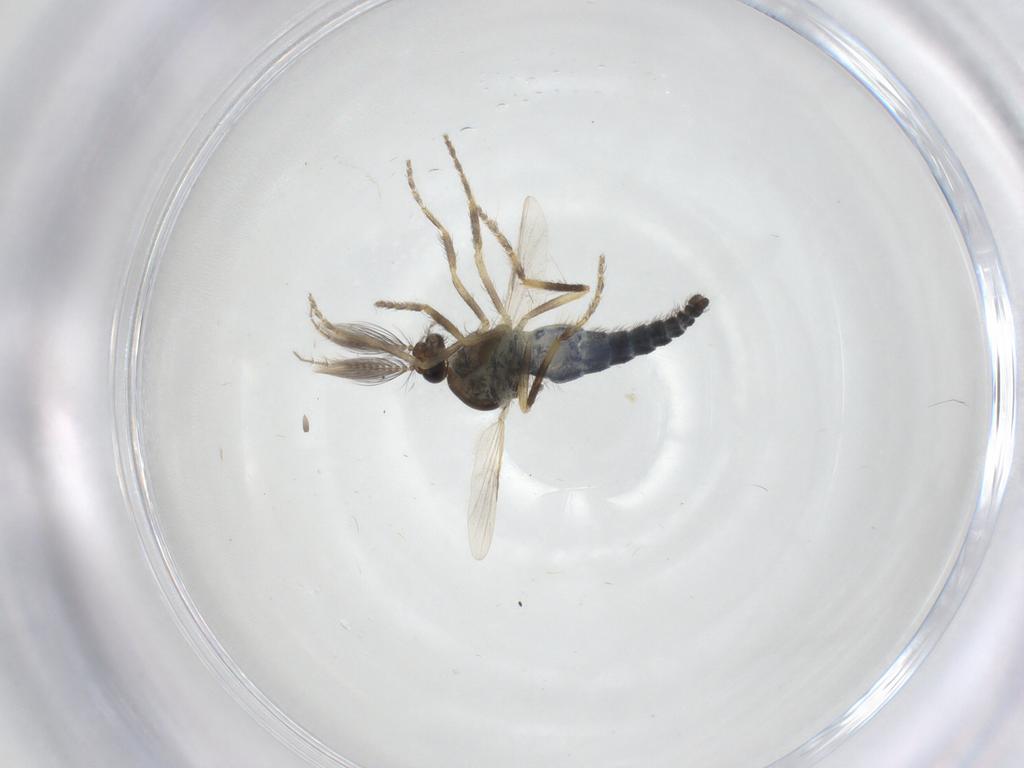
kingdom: Animalia
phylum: Arthropoda
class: Insecta
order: Diptera
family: Ceratopogonidae
